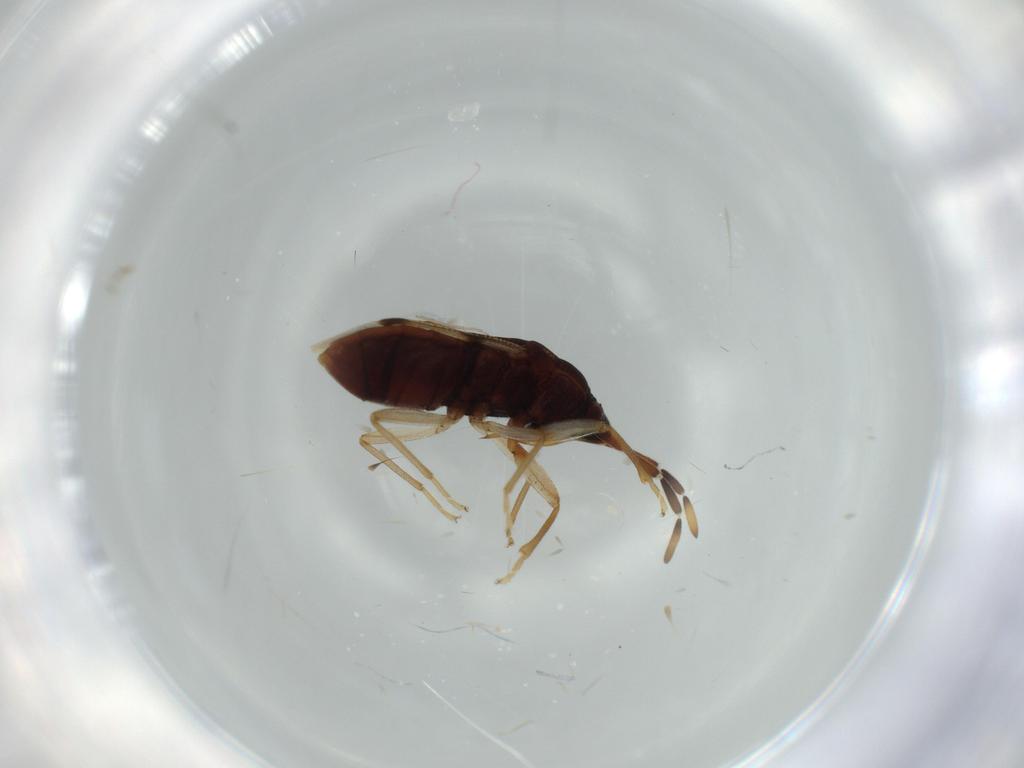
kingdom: Animalia
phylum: Arthropoda
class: Insecta
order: Hemiptera
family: Rhyparochromidae
